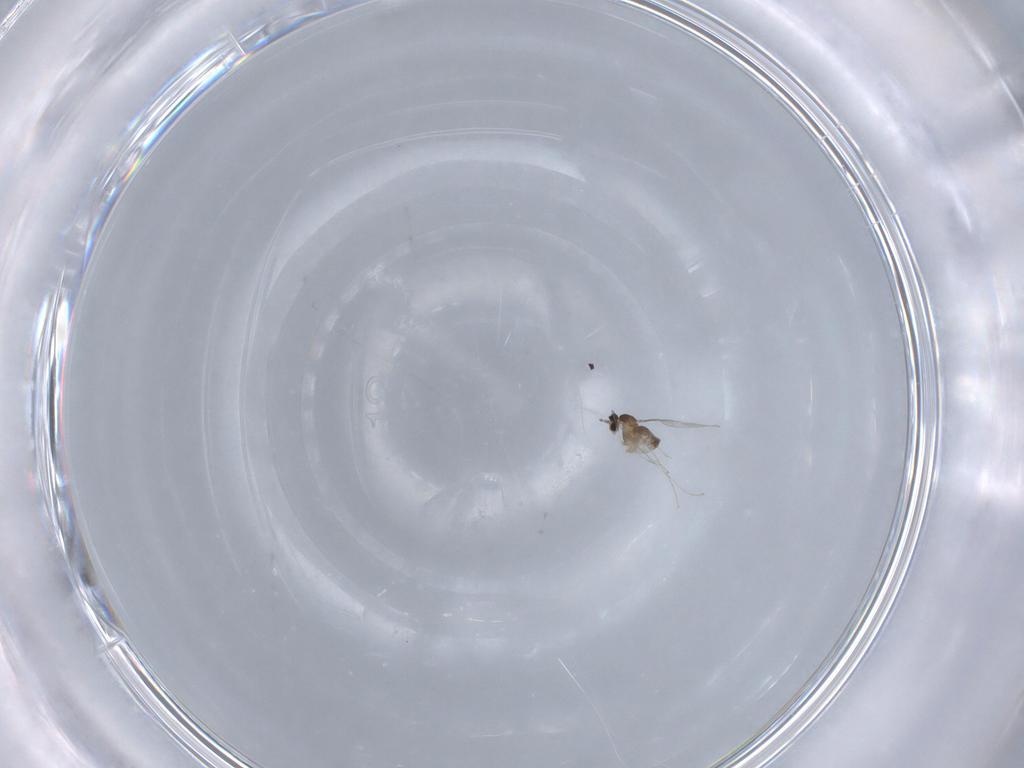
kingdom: Animalia
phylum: Arthropoda
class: Insecta
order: Diptera
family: Cecidomyiidae
